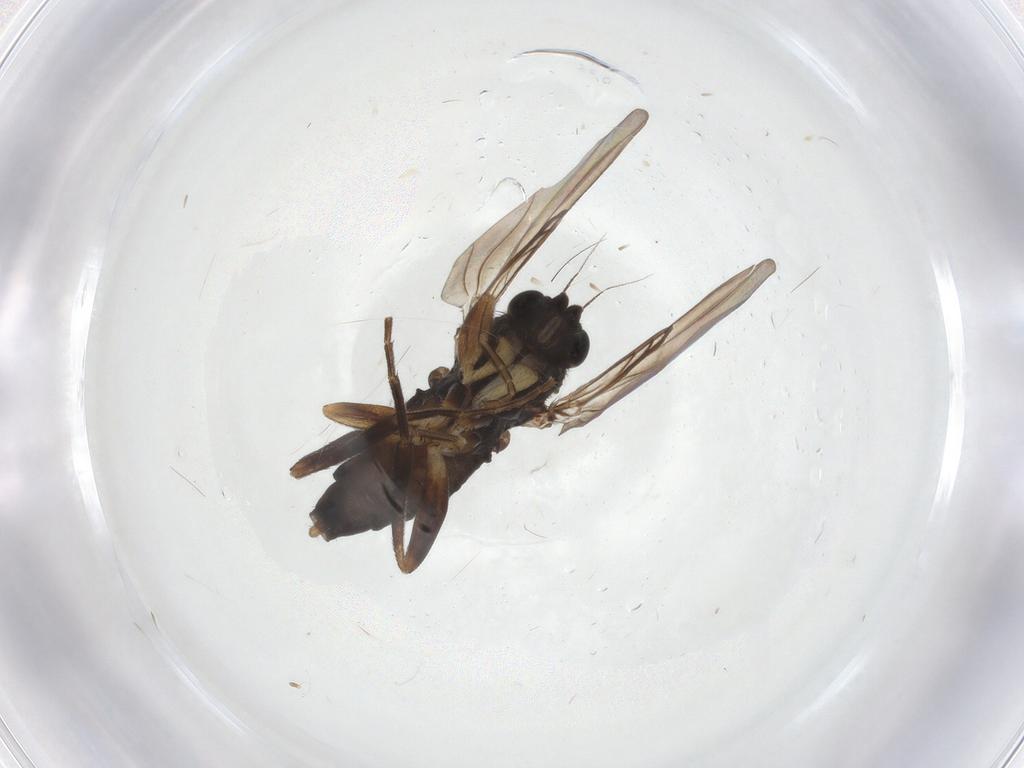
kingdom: Animalia
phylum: Arthropoda
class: Insecta
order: Diptera
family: Phoridae
